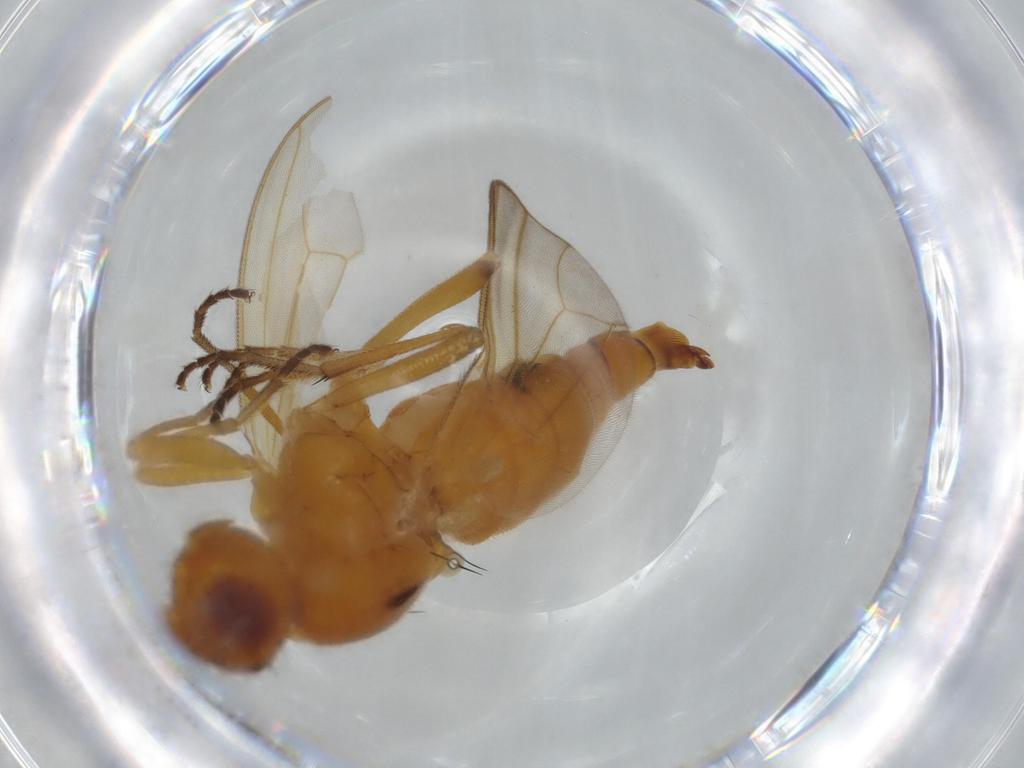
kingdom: Animalia
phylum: Arthropoda
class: Insecta
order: Diptera
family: Hybotidae
